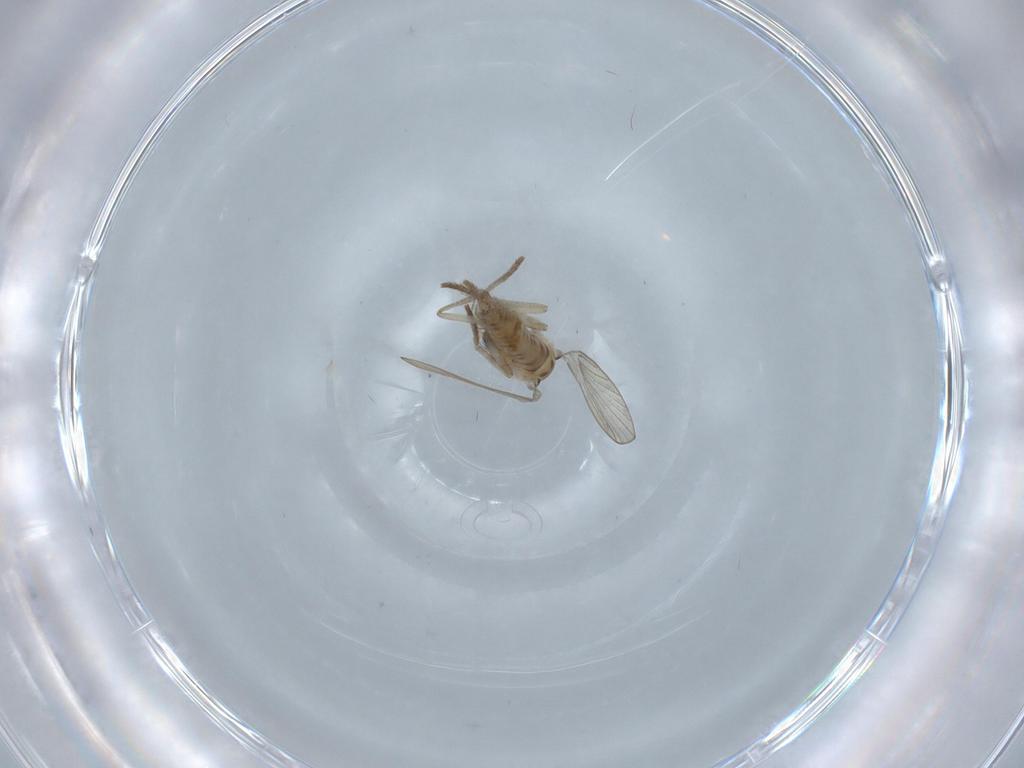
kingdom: Animalia
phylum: Arthropoda
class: Insecta
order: Diptera
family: Psychodidae
